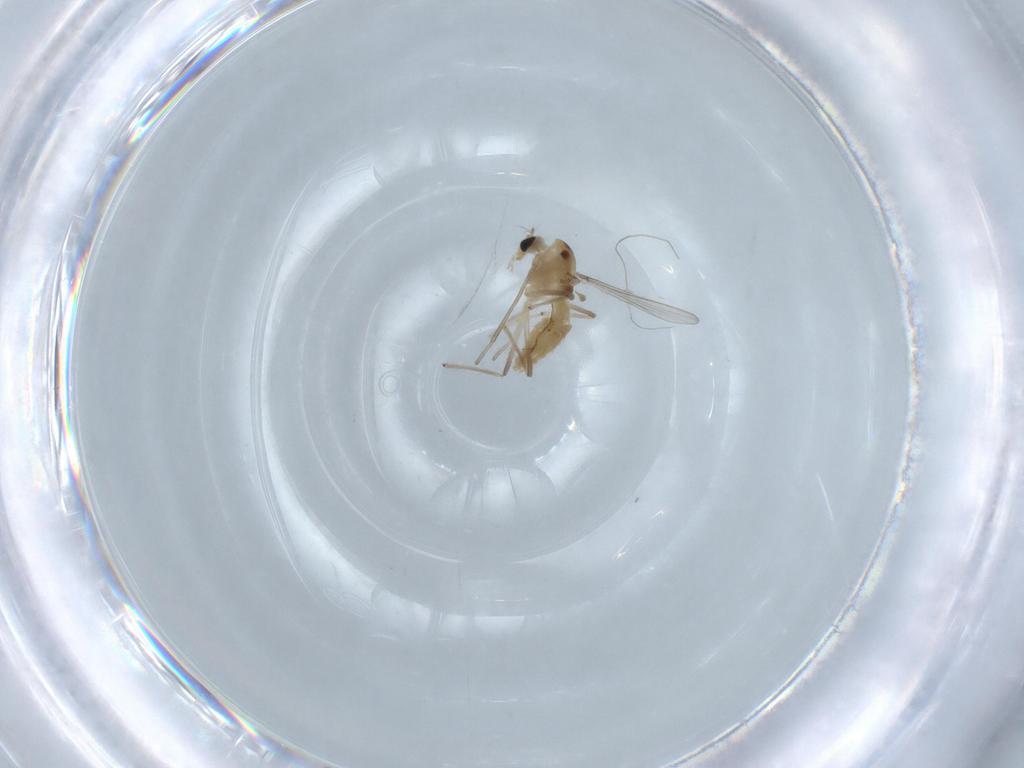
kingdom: Animalia
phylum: Arthropoda
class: Insecta
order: Diptera
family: Chironomidae
